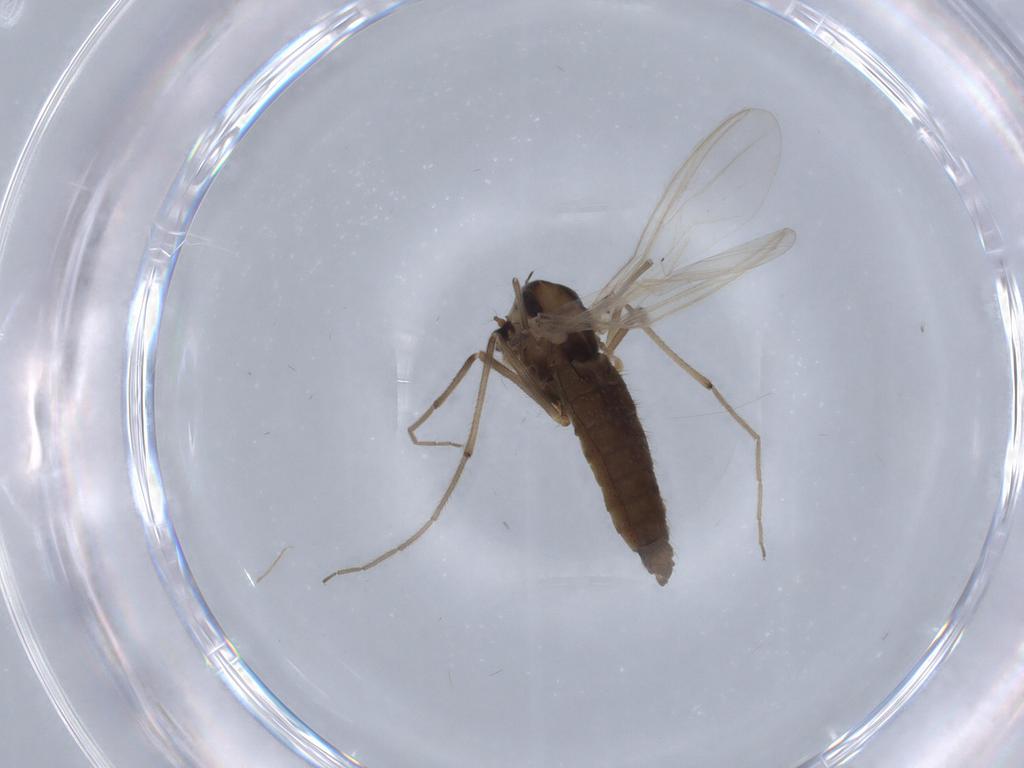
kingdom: Animalia
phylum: Arthropoda
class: Insecta
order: Diptera
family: Chironomidae
